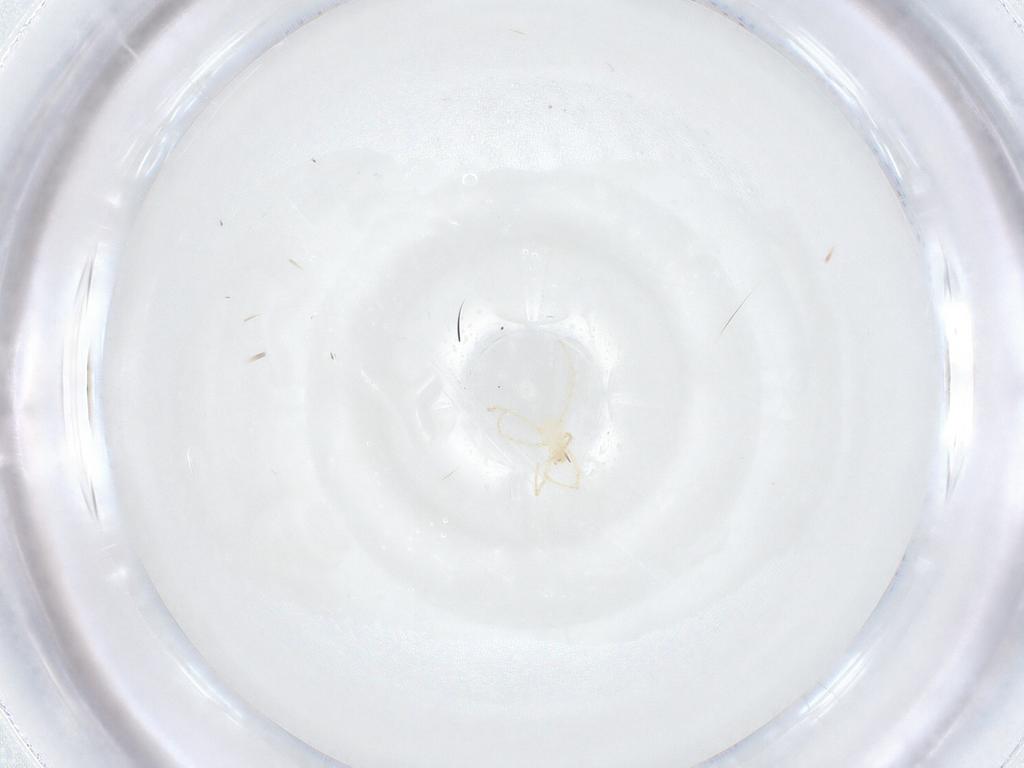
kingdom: Animalia
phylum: Arthropoda
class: Arachnida
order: Trombidiformes
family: Erythraeidae
